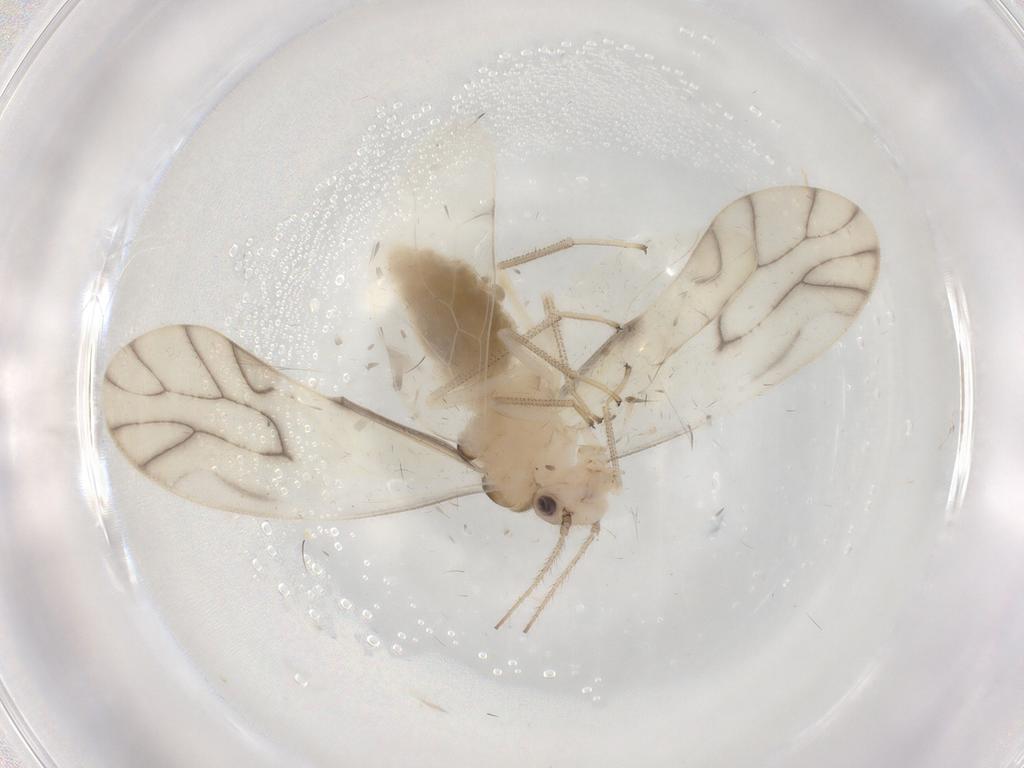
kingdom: Animalia
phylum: Arthropoda
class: Insecta
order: Psocodea
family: Caeciliusidae
